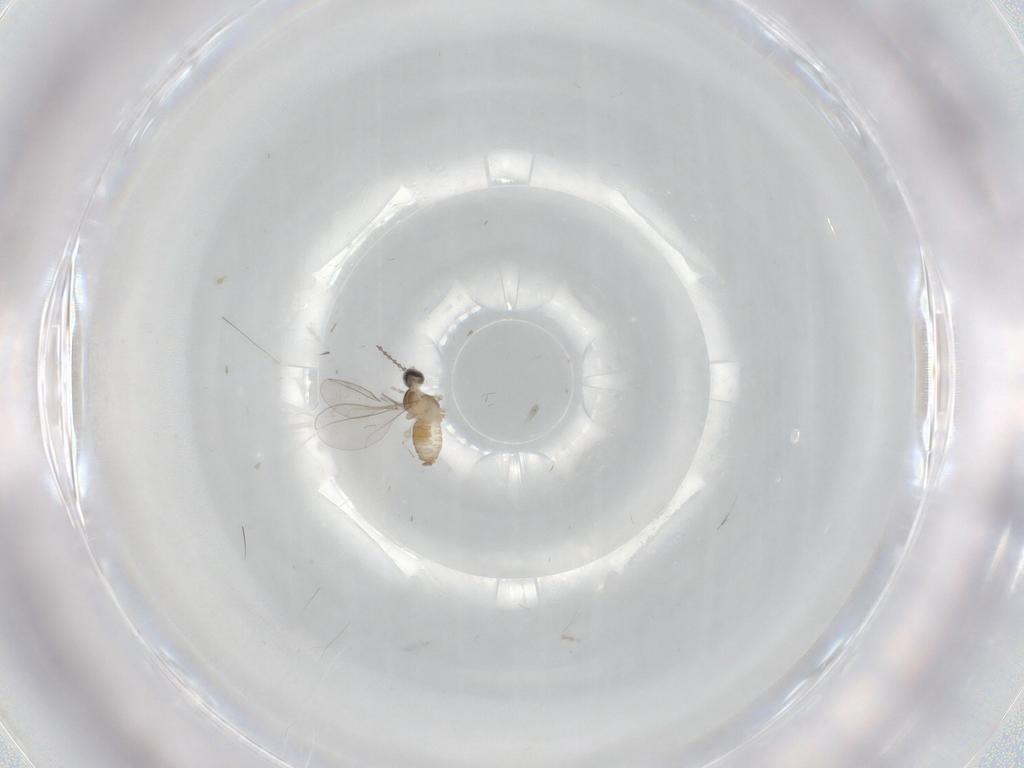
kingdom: Animalia
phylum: Arthropoda
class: Insecta
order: Diptera
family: Cecidomyiidae
